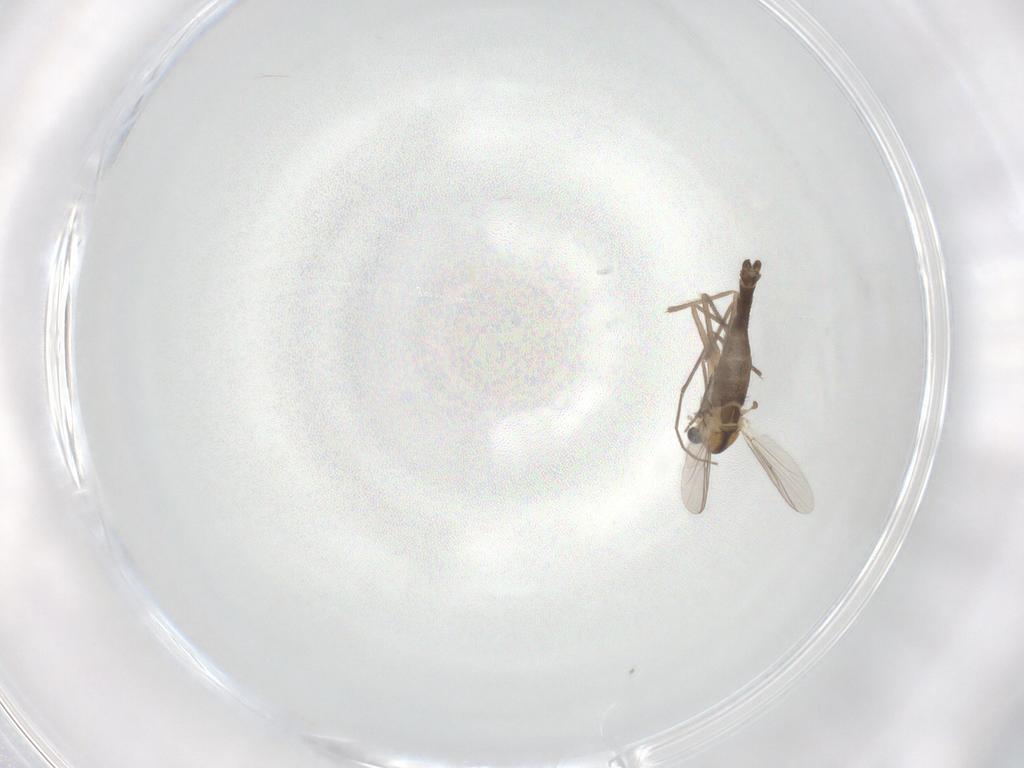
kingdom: Animalia
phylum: Arthropoda
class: Insecta
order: Diptera
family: Chironomidae
